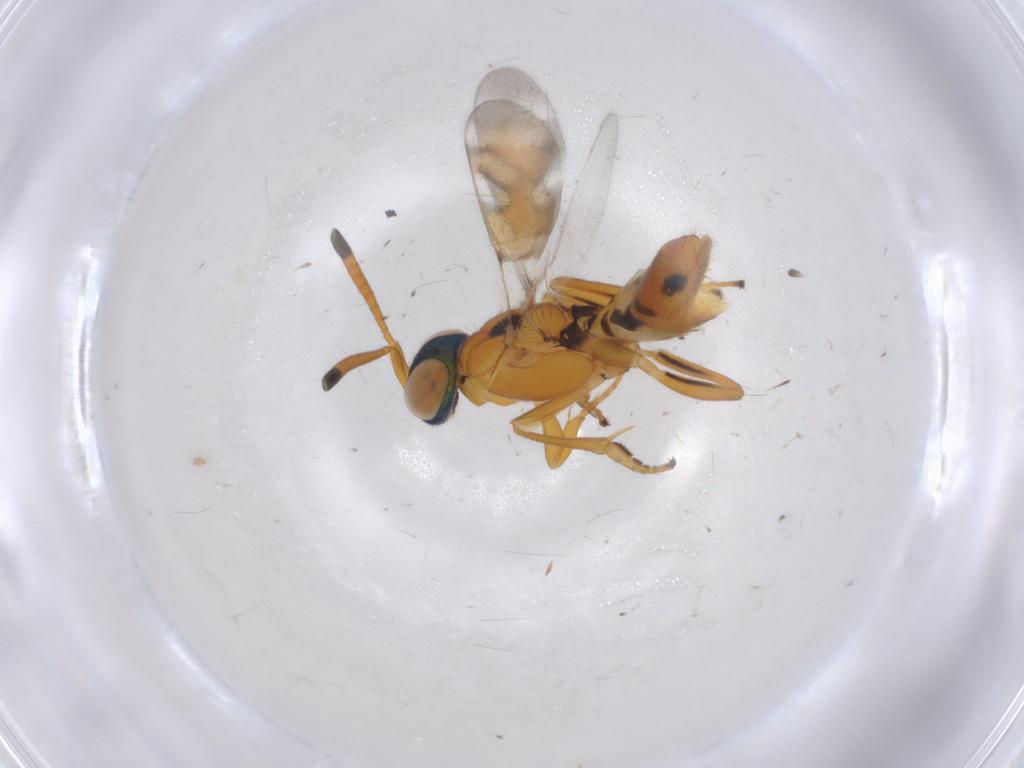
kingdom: Animalia
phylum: Arthropoda
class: Insecta
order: Hymenoptera
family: Eupelmidae
